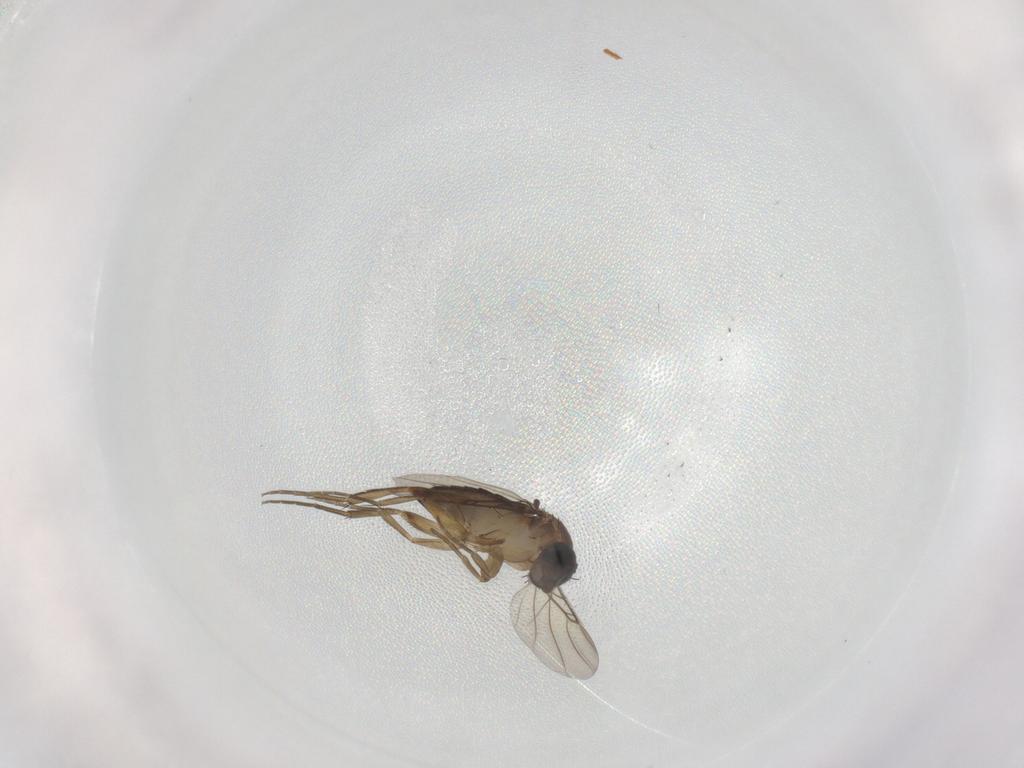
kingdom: Animalia
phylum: Arthropoda
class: Insecta
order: Diptera
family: Phoridae
